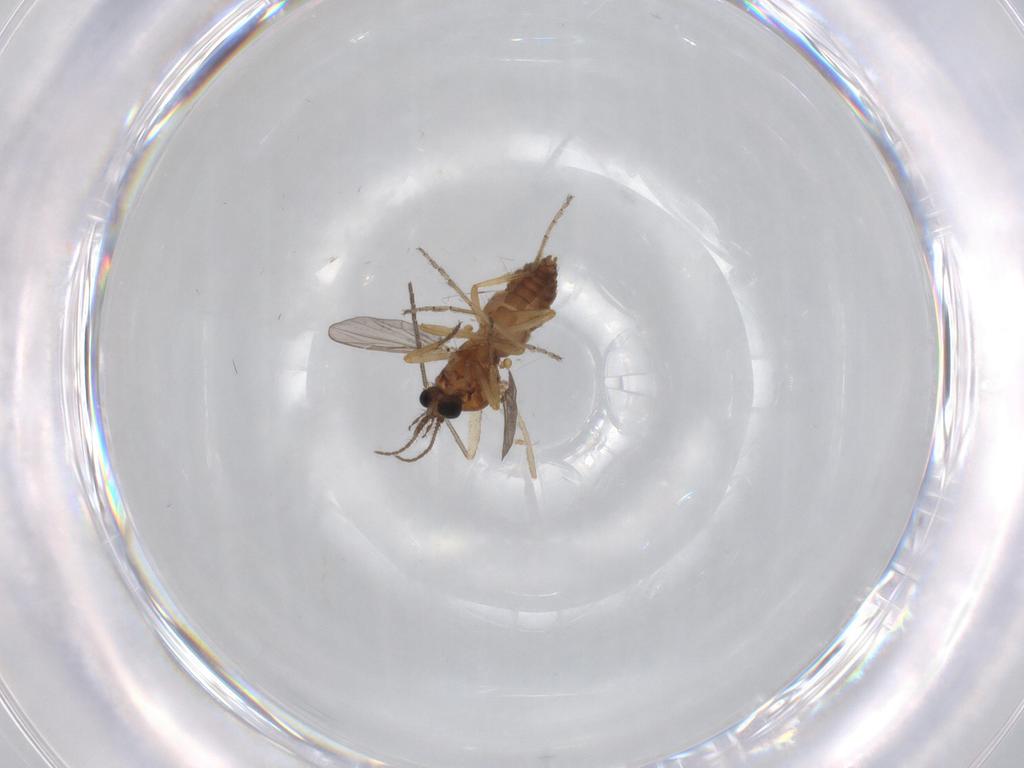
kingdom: Animalia
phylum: Arthropoda
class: Insecta
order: Diptera
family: Ceratopogonidae
